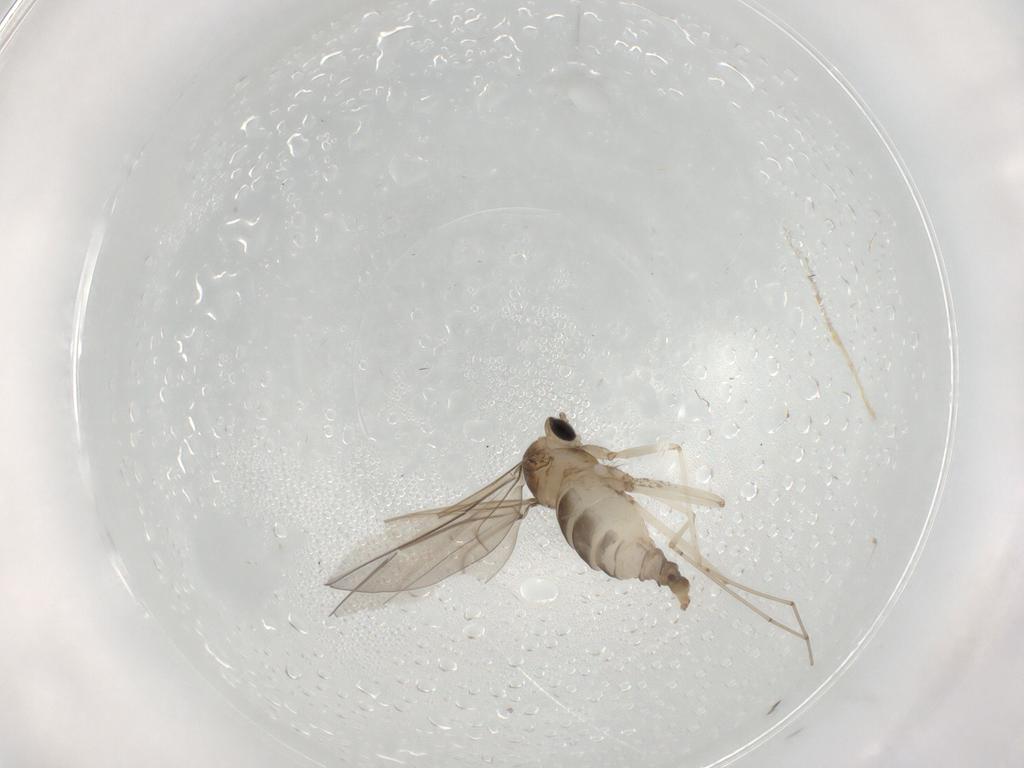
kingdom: Animalia
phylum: Arthropoda
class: Insecta
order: Diptera
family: Cecidomyiidae
